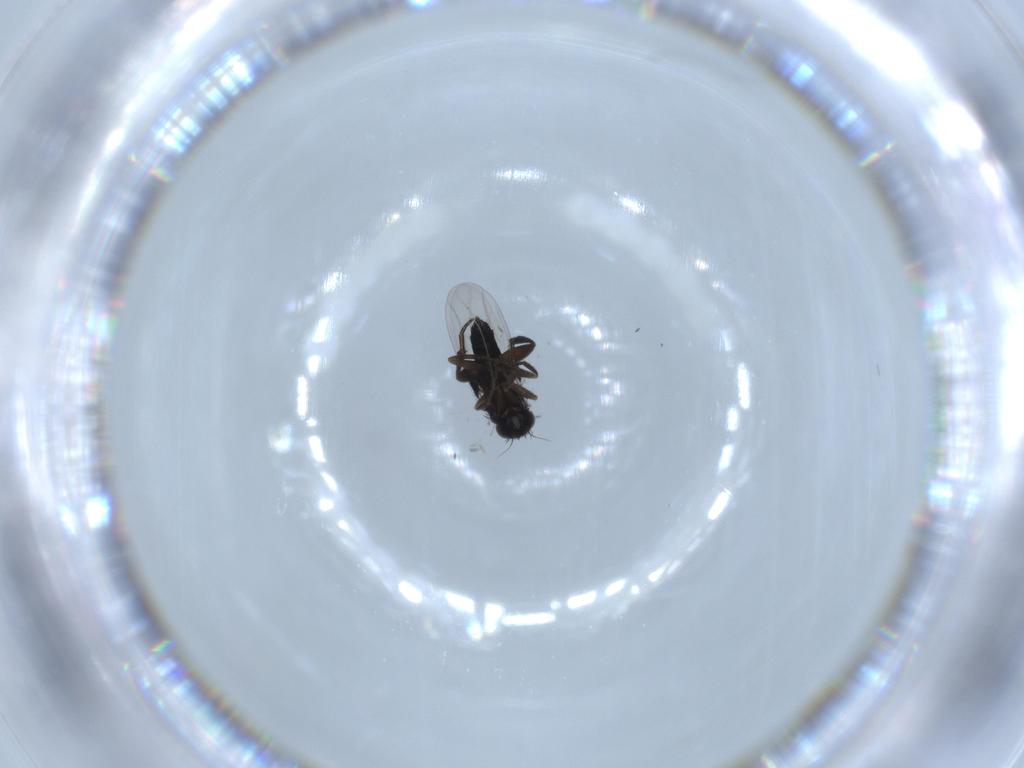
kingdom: Animalia
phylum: Arthropoda
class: Insecta
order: Diptera
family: Phoridae
